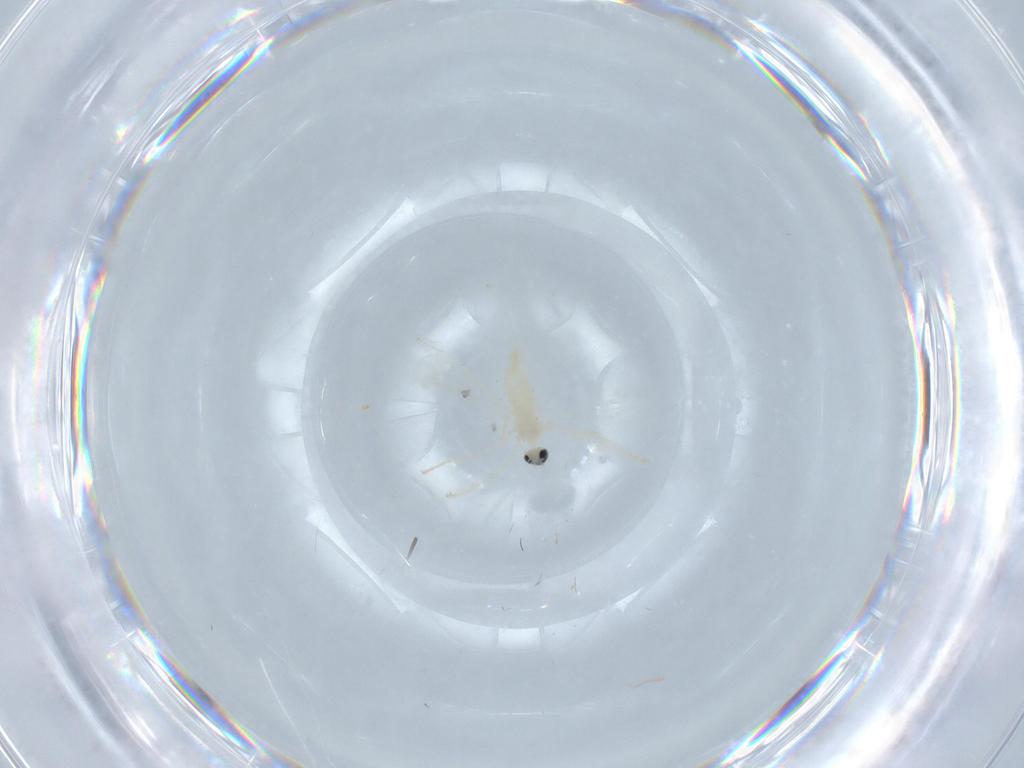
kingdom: Animalia
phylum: Arthropoda
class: Insecta
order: Diptera
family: Cecidomyiidae
